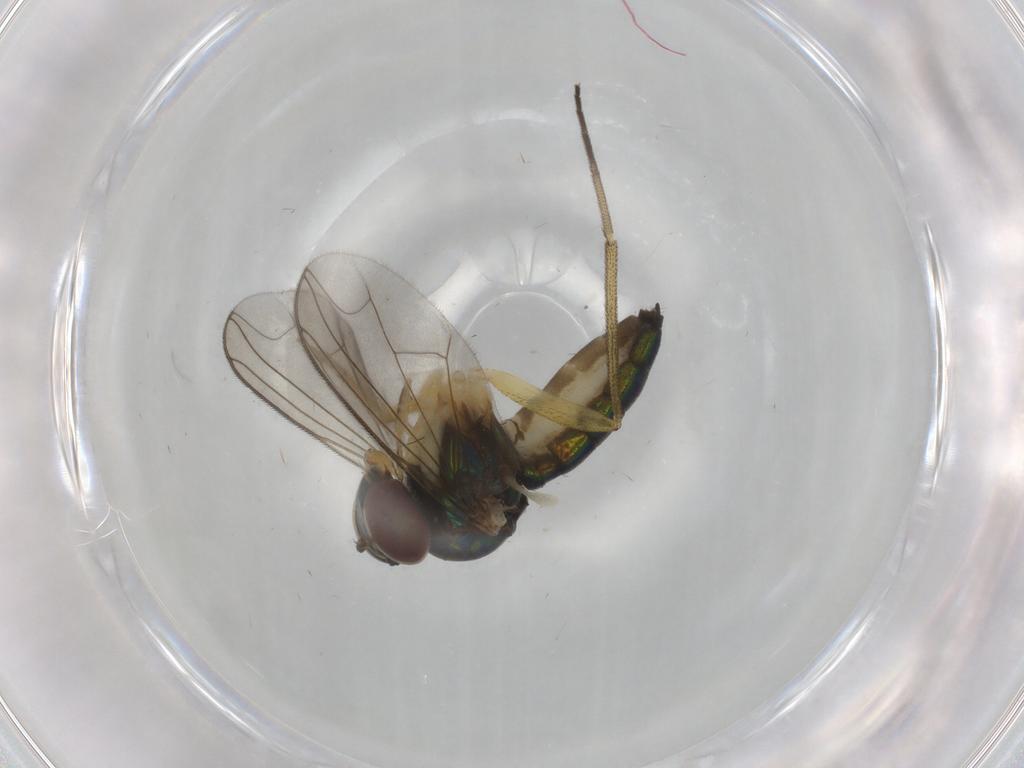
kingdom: Animalia
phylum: Arthropoda
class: Insecta
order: Diptera
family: Dolichopodidae
